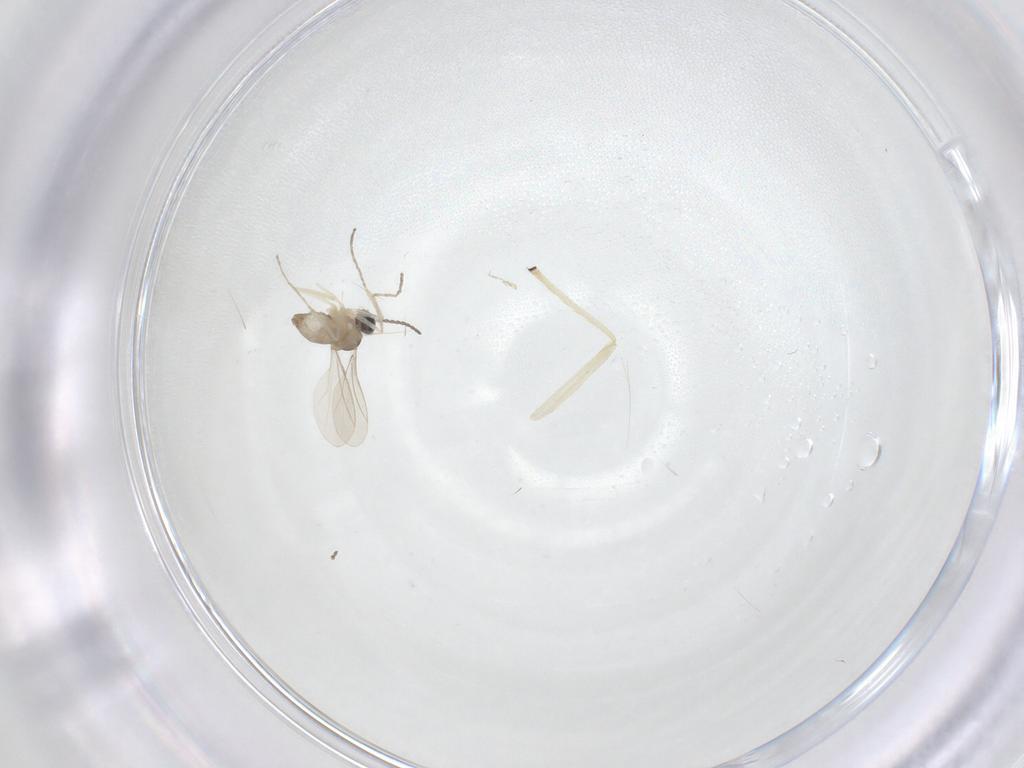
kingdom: Animalia
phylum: Arthropoda
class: Insecta
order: Diptera
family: Cecidomyiidae
